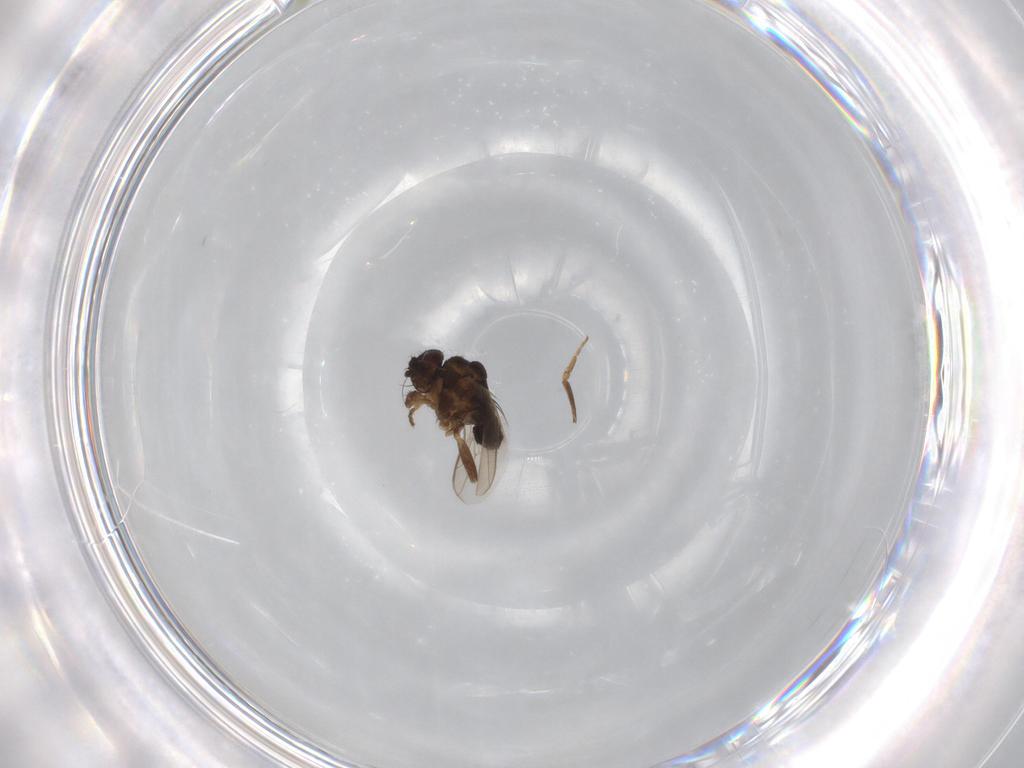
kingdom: Animalia
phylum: Arthropoda
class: Insecta
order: Diptera
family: Sphaeroceridae
